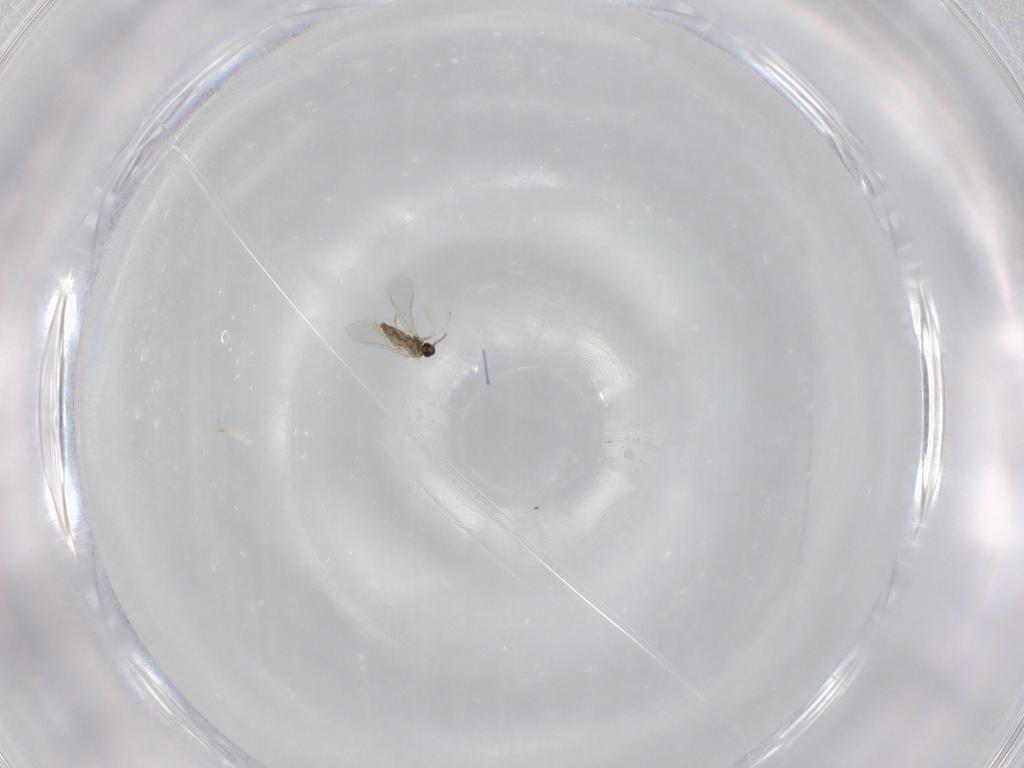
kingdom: Animalia
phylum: Arthropoda
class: Insecta
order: Diptera
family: Cecidomyiidae
